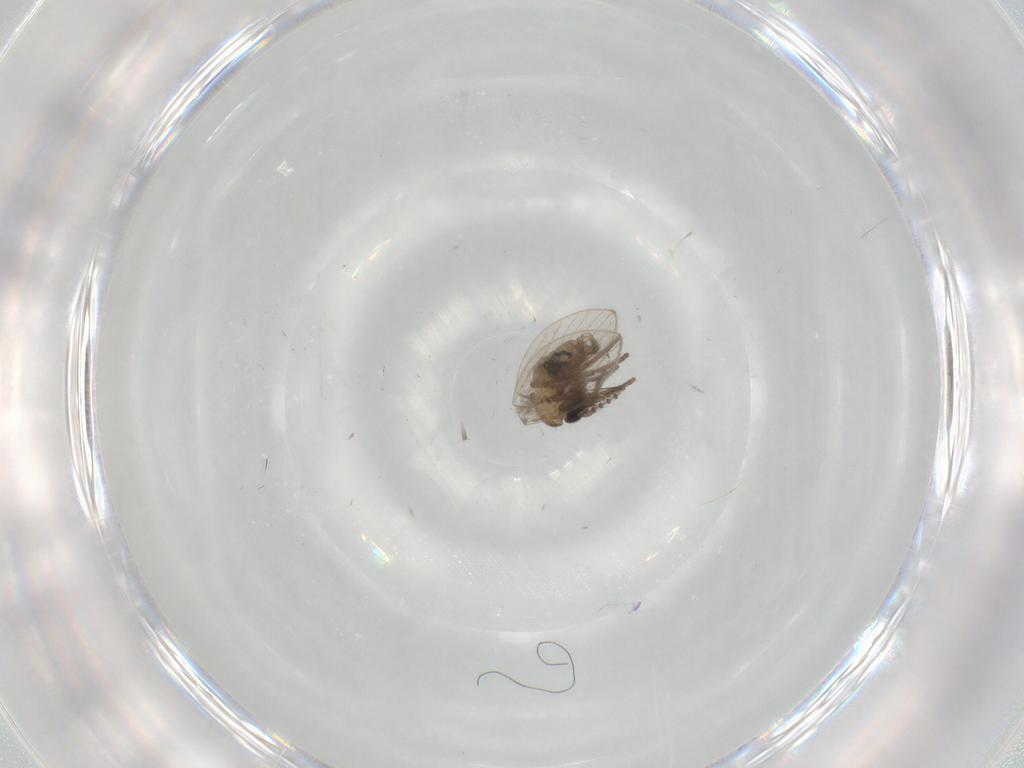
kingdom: Animalia
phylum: Arthropoda
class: Insecta
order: Diptera
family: Psychodidae
